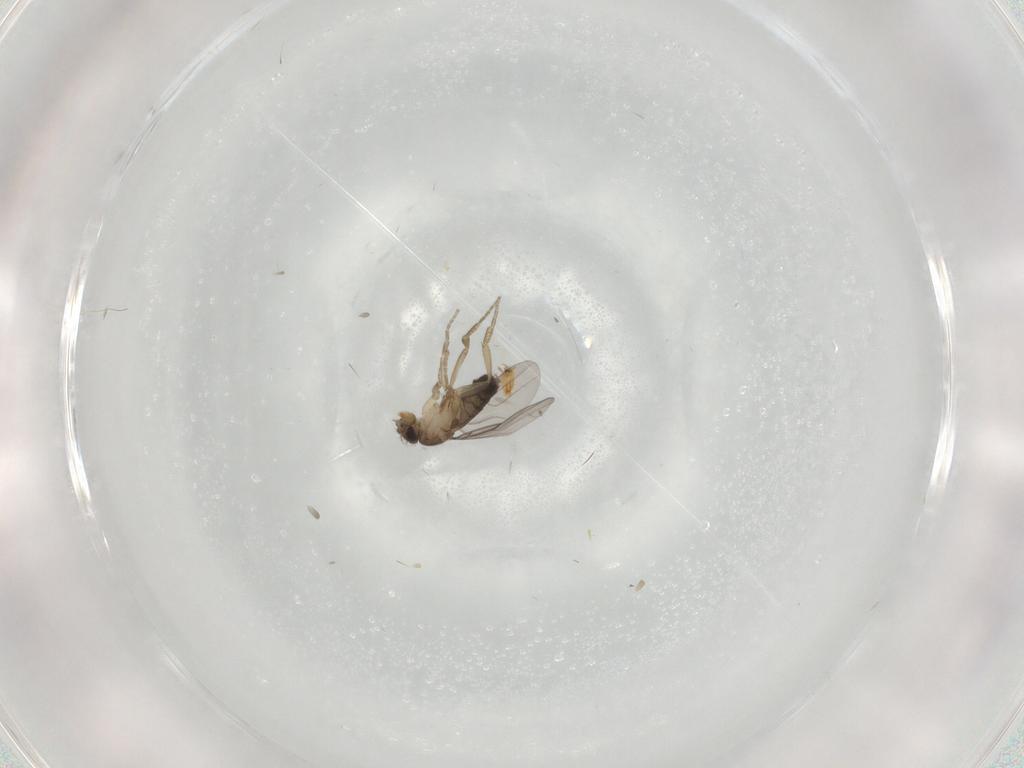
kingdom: Animalia
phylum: Arthropoda
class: Insecta
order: Diptera
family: Phoridae
